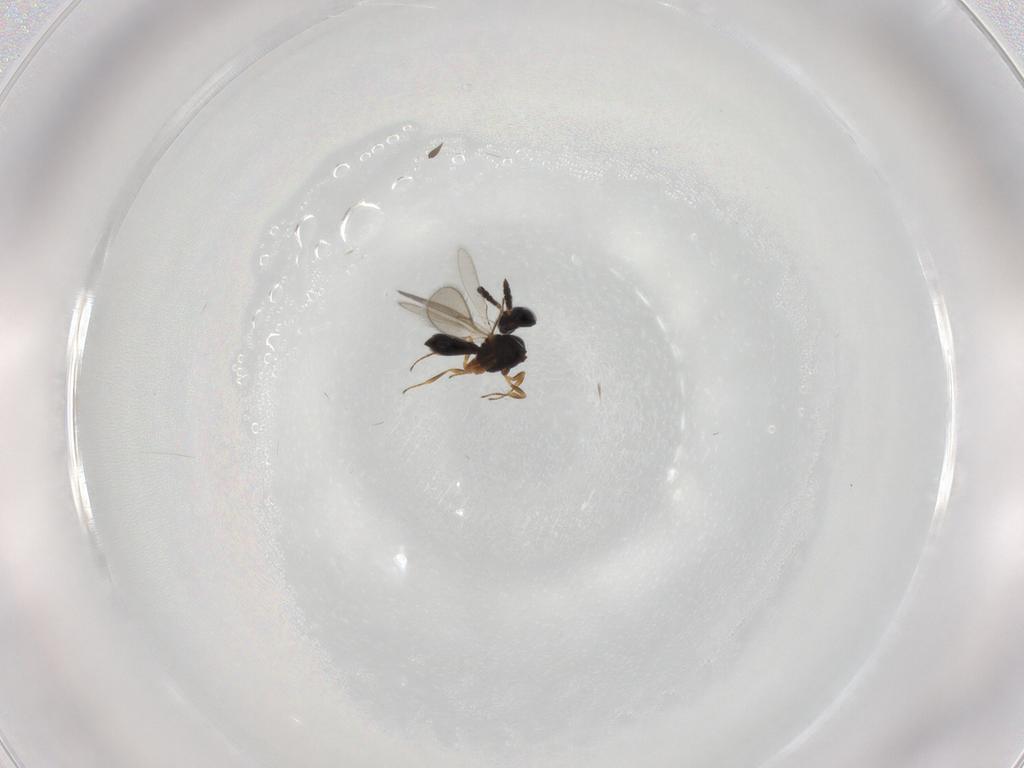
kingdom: Animalia
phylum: Arthropoda
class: Insecta
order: Hymenoptera
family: Scelionidae
